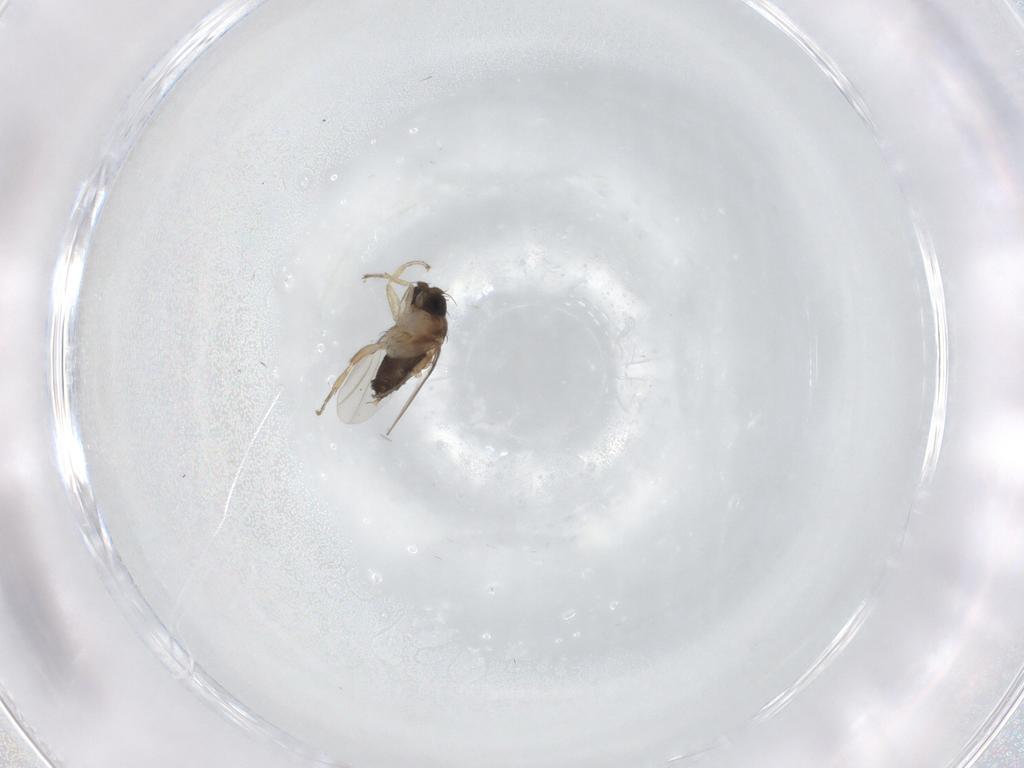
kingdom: Animalia
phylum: Arthropoda
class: Insecta
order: Diptera
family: Phoridae
